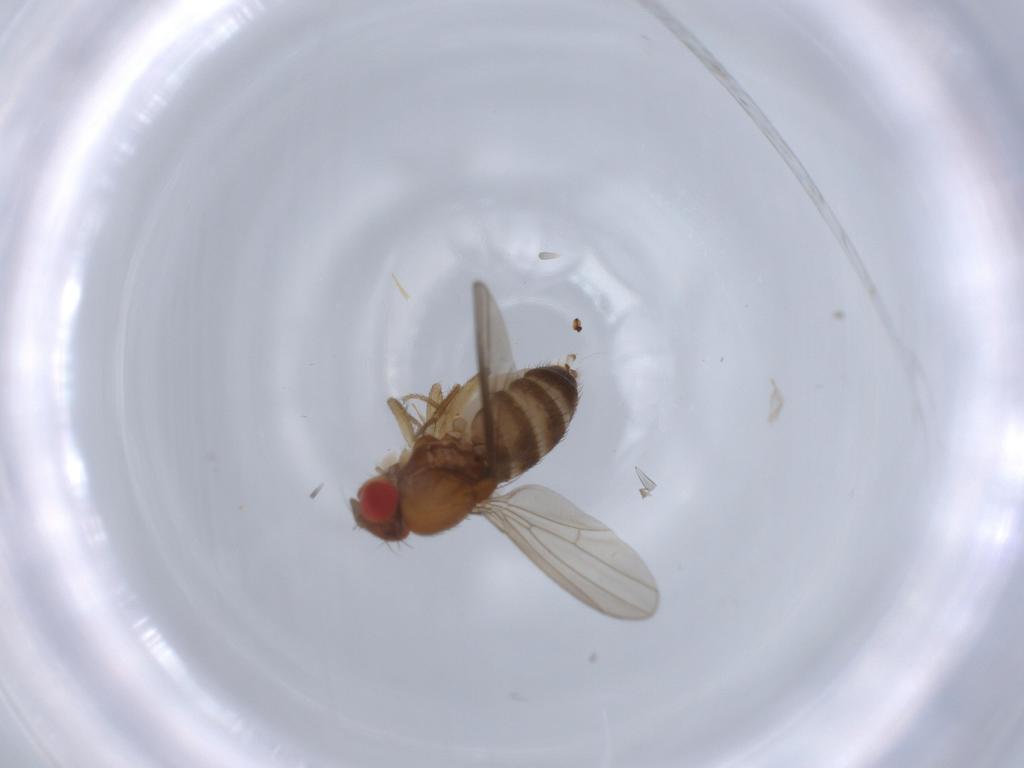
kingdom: Animalia
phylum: Arthropoda
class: Insecta
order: Diptera
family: Drosophilidae
